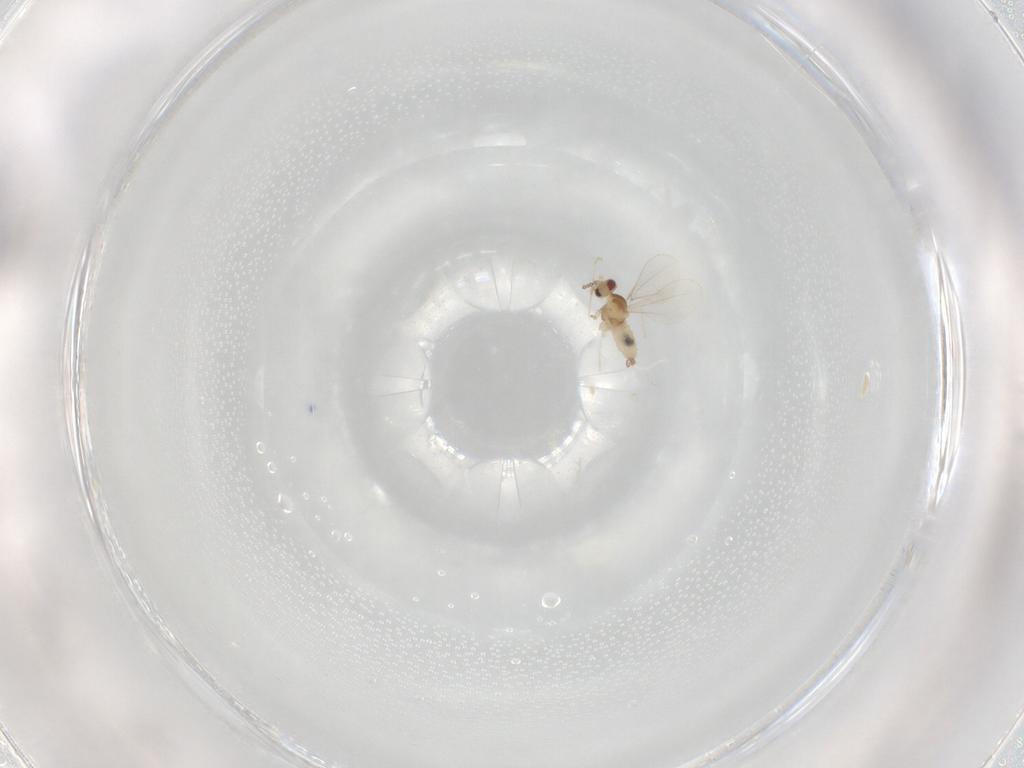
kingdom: Animalia
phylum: Arthropoda
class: Insecta
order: Diptera
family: Cecidomyiidae
